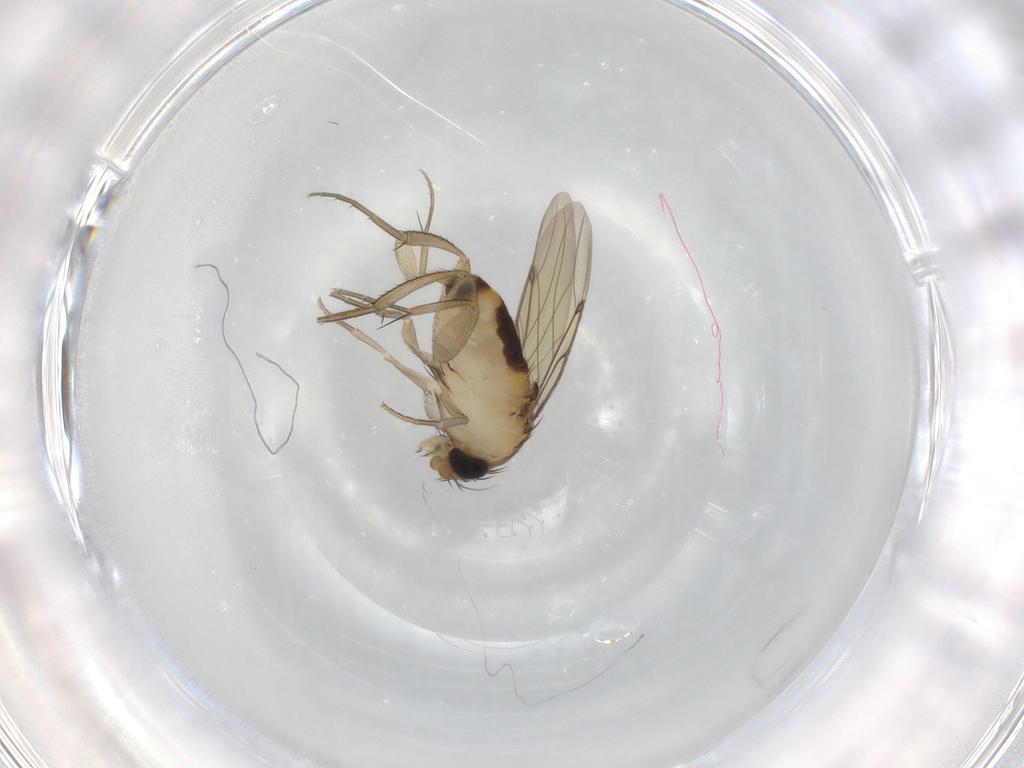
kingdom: Animalia
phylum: Arthropoda
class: Insecta
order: Diptera
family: Phoridae
